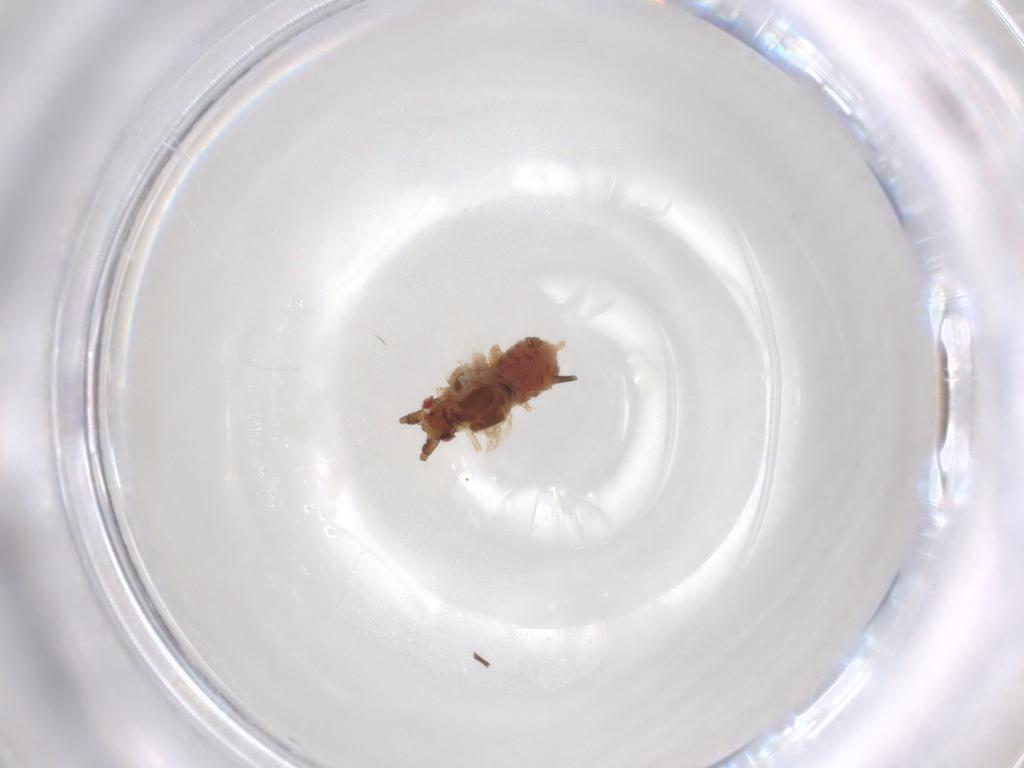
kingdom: Animalia
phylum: Arthropoda
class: Insecta
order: Hemiptera
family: Aphididae
